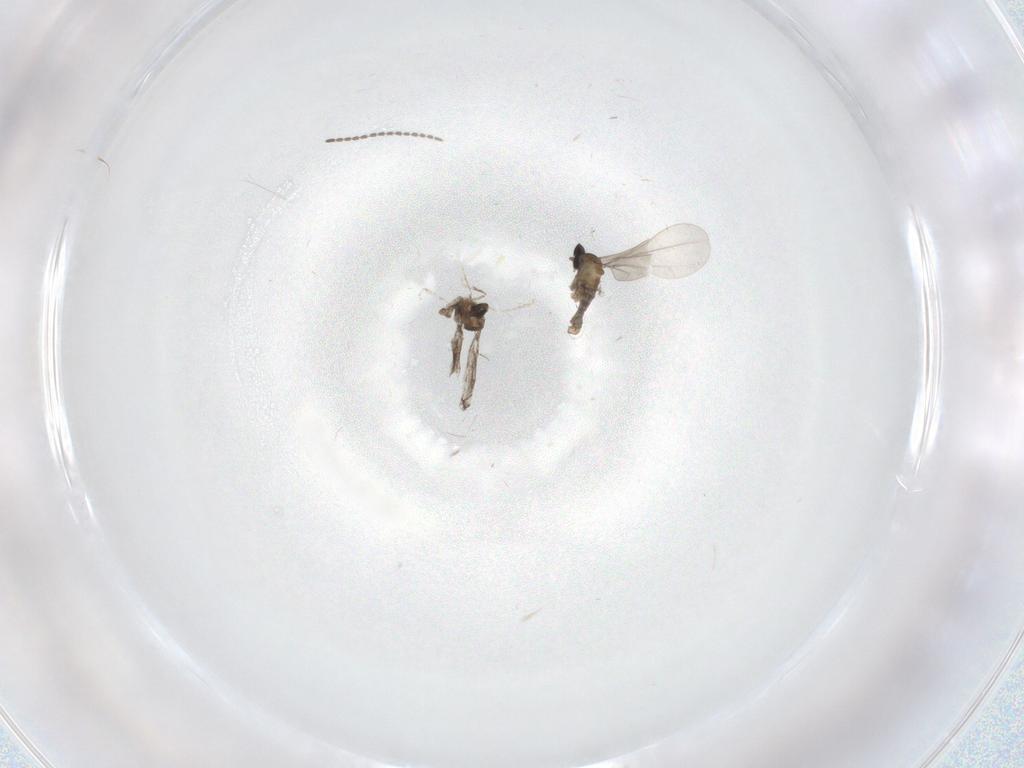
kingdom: Animalia
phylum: Arthropoda
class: Insecta
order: Diptera
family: Sciaridae
